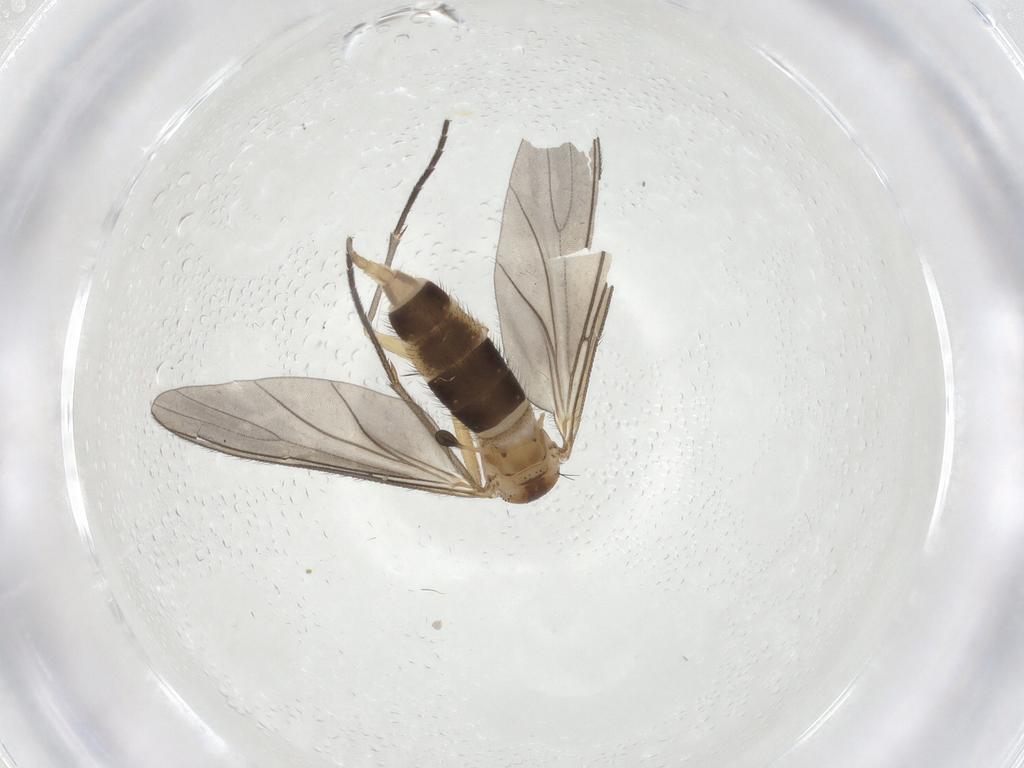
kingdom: Animalia
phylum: Arthropoda
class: Insecta
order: Diptera
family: Sciaridae
